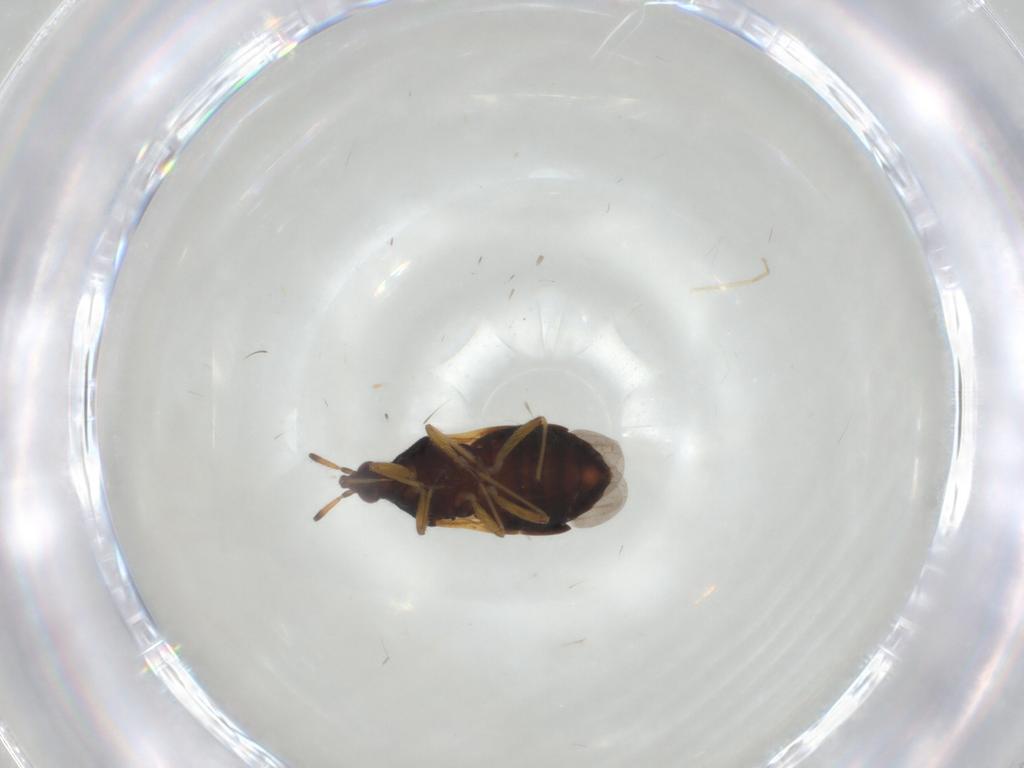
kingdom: Animalia
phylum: Arthropoda
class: Insecta
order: Hemiptera
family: Anthocoridae
